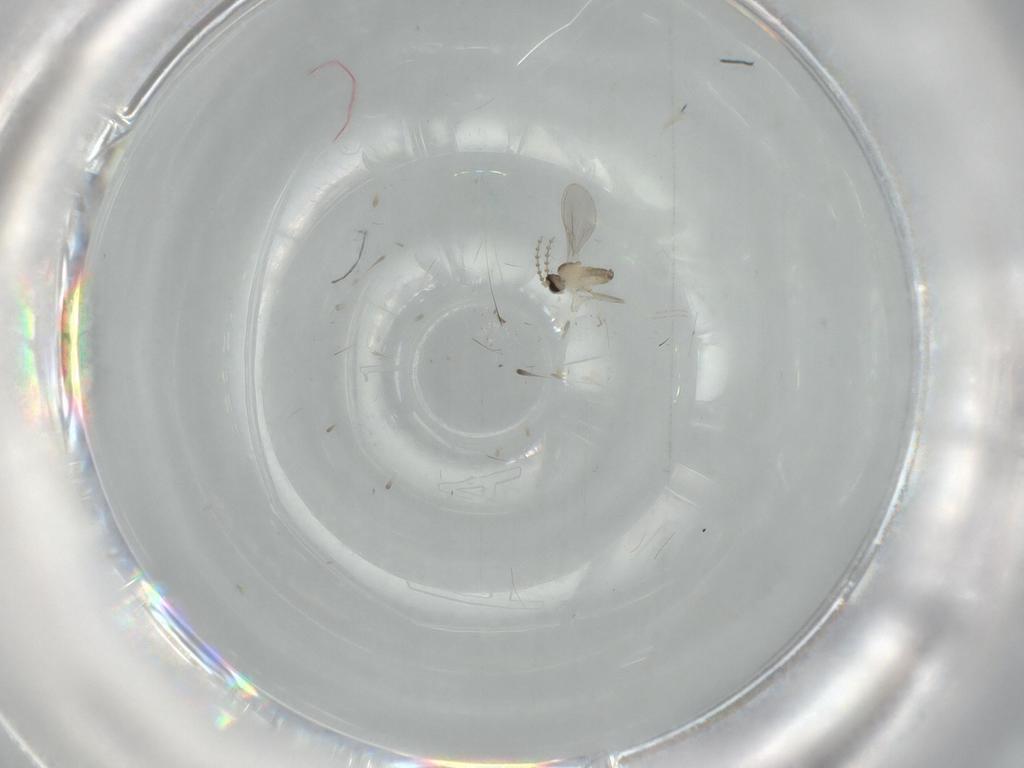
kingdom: Animalia
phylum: Arthropoda
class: Insecta
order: Diptera
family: Cecidomyiidae
